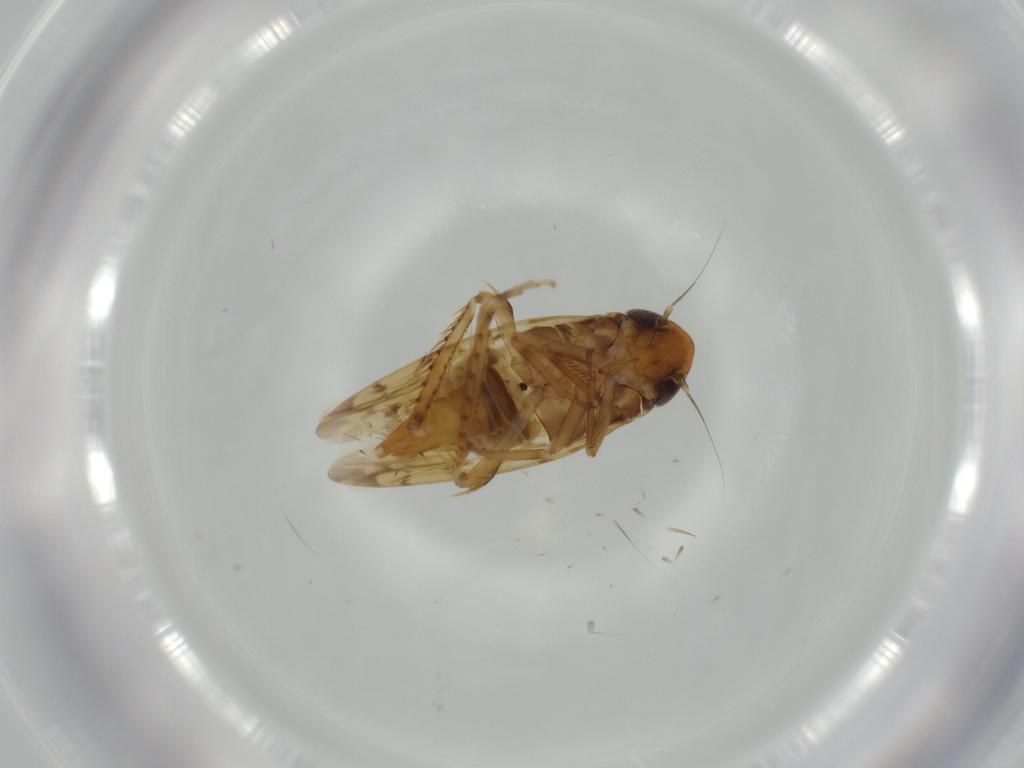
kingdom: Animalia
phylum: Arthropoda
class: Insecta
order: Hemiptera
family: Cicadellidae
